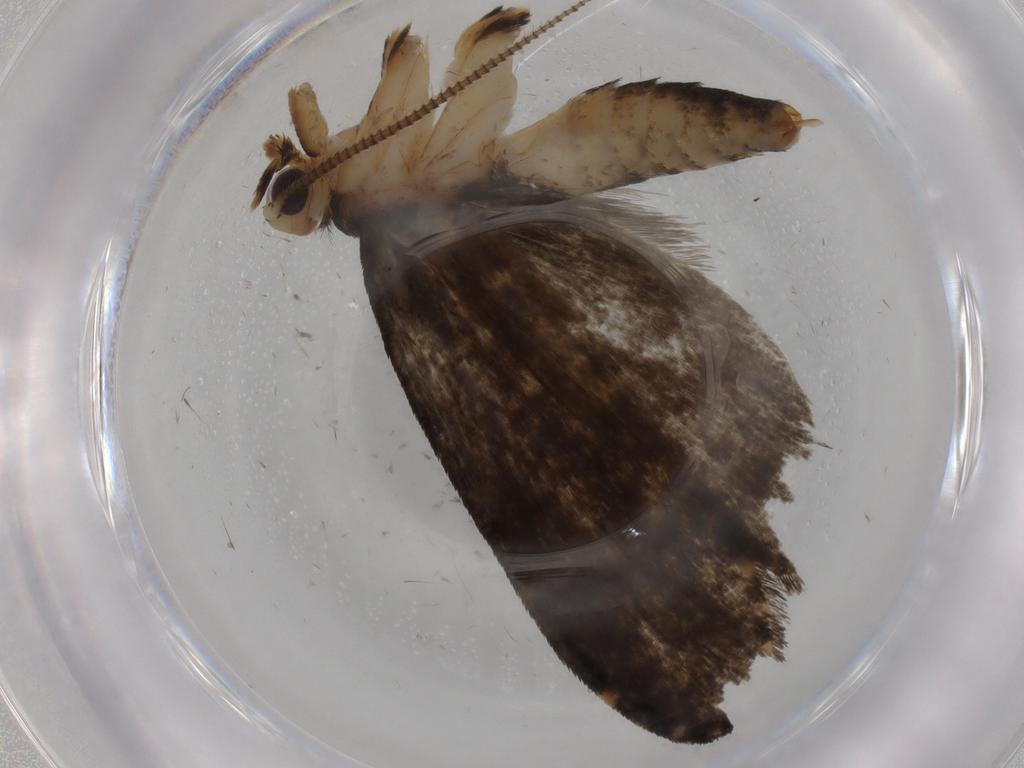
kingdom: Animalia
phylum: Arthropoda
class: Insecta
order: Lepidoptera
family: Tineidae
